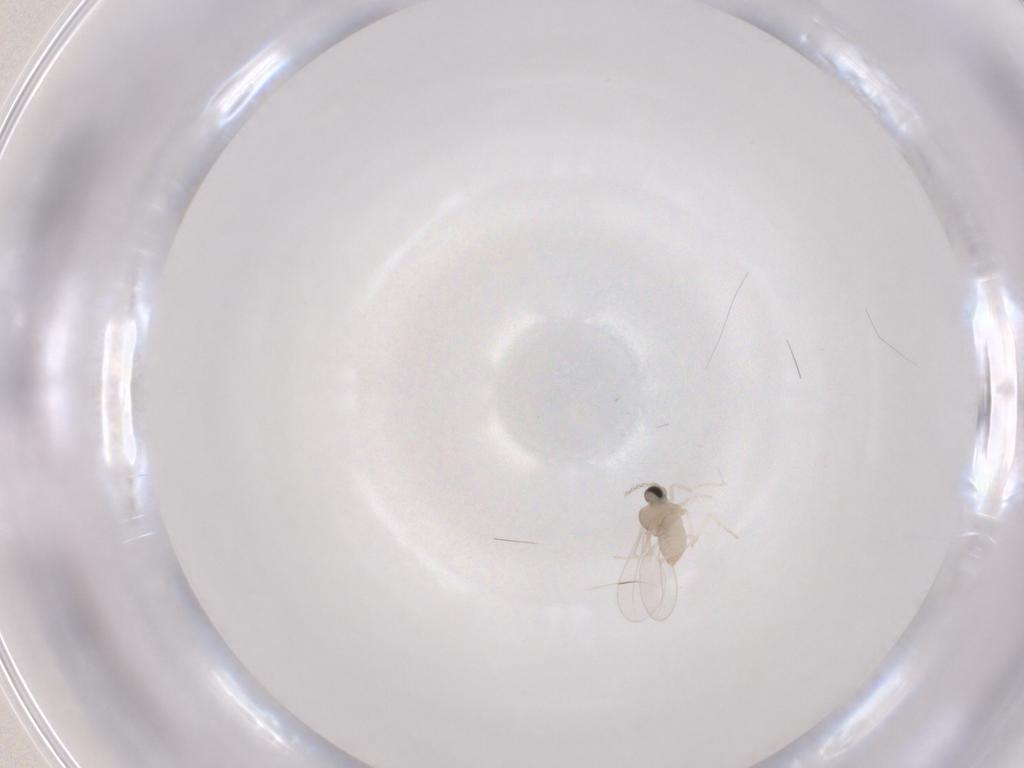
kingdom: Animalia
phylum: Arthropoda
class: Insecta
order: Diptera
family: Cecidomyiidae
